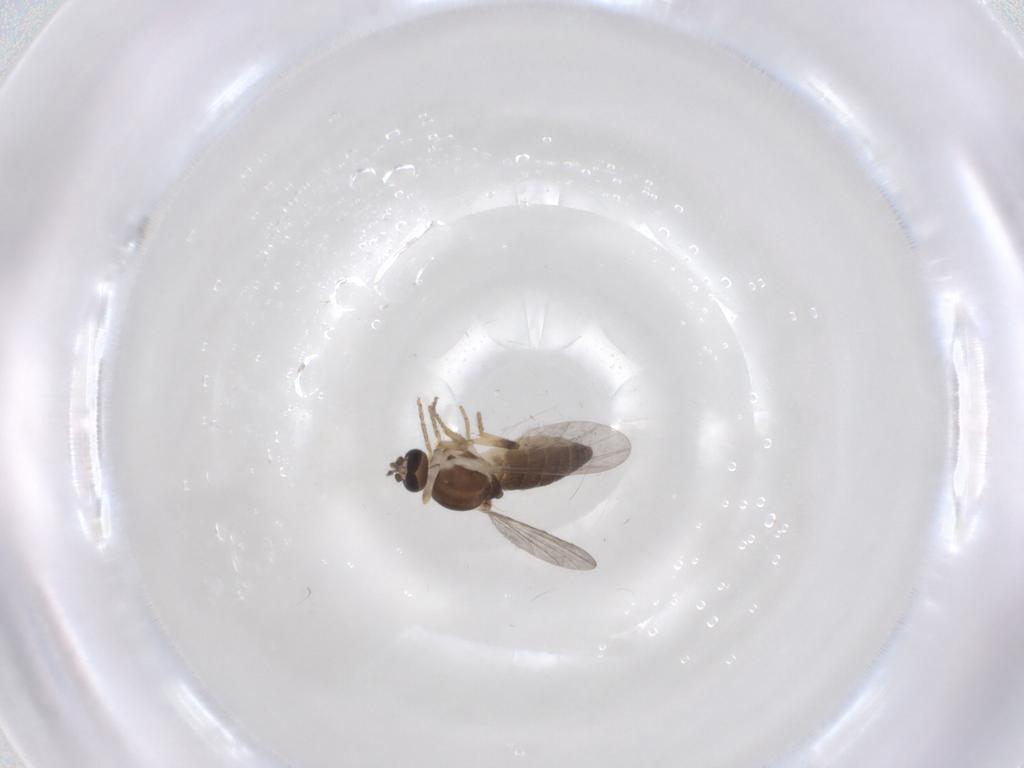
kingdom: Animalia
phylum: Arthropoda
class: Insecta
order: Diptera
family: Ceratopogonidae
